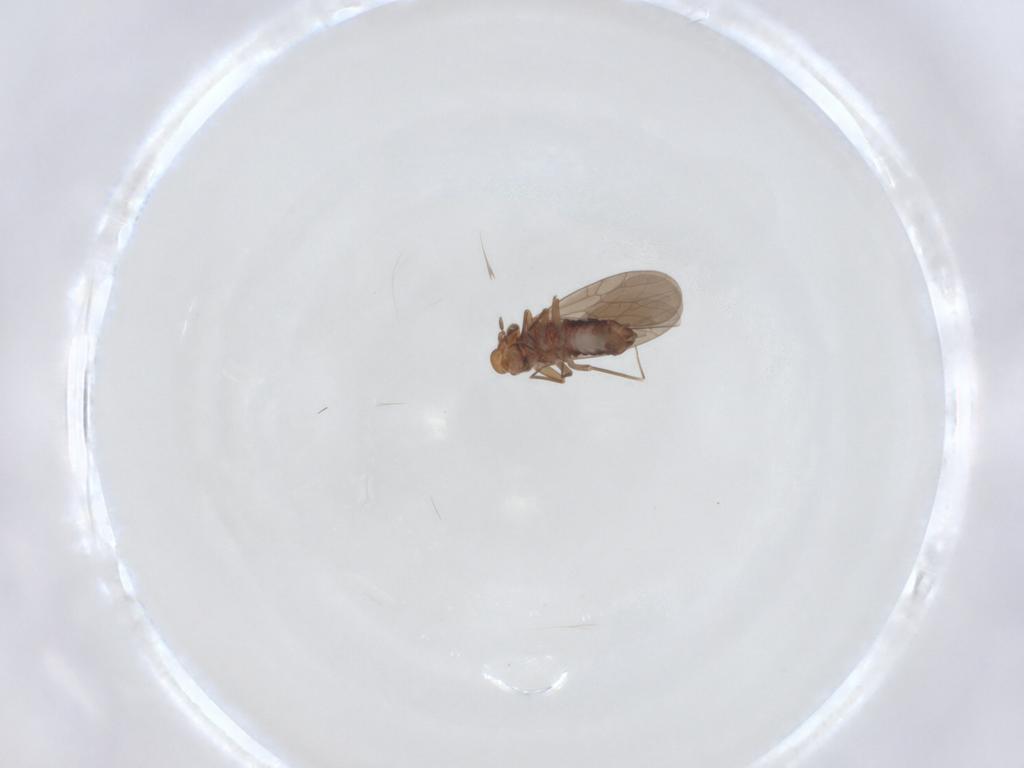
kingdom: Animalia
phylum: Arthropoda
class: Insecta
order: Psocodea
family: Lepidopsocidae
